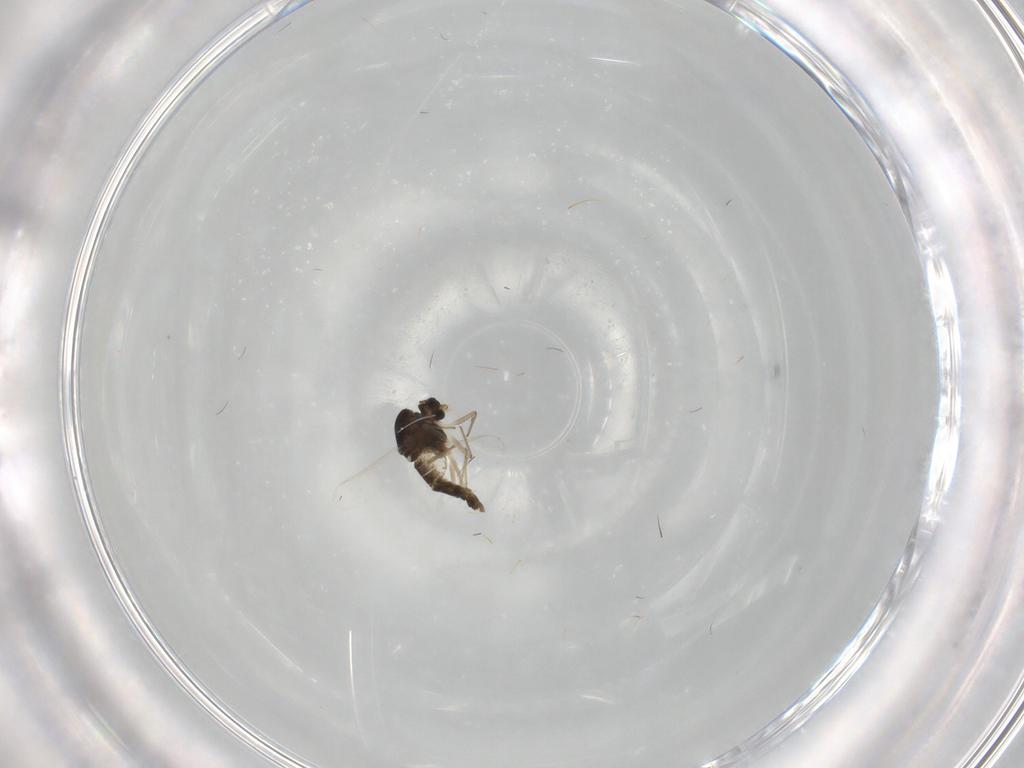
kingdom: Animalia
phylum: Arthropoda
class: Insecta
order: Diptera
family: Chironomidae
